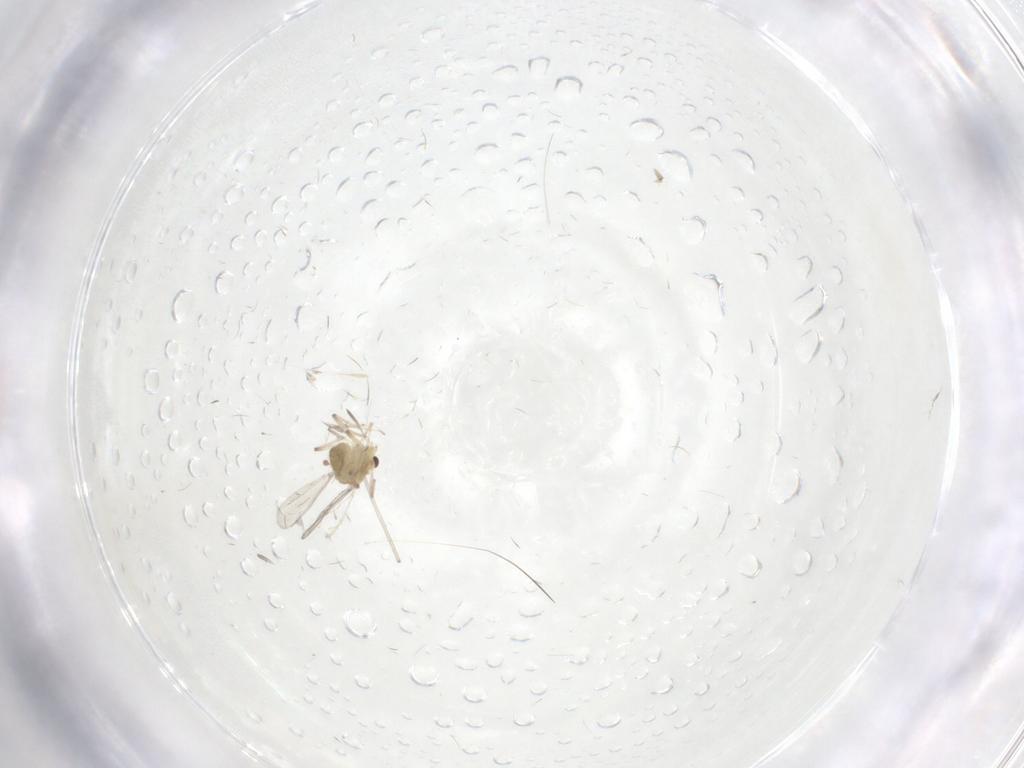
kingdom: Animalia
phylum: Arthropoda
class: Insecta
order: Diptera
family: Chironomidae
